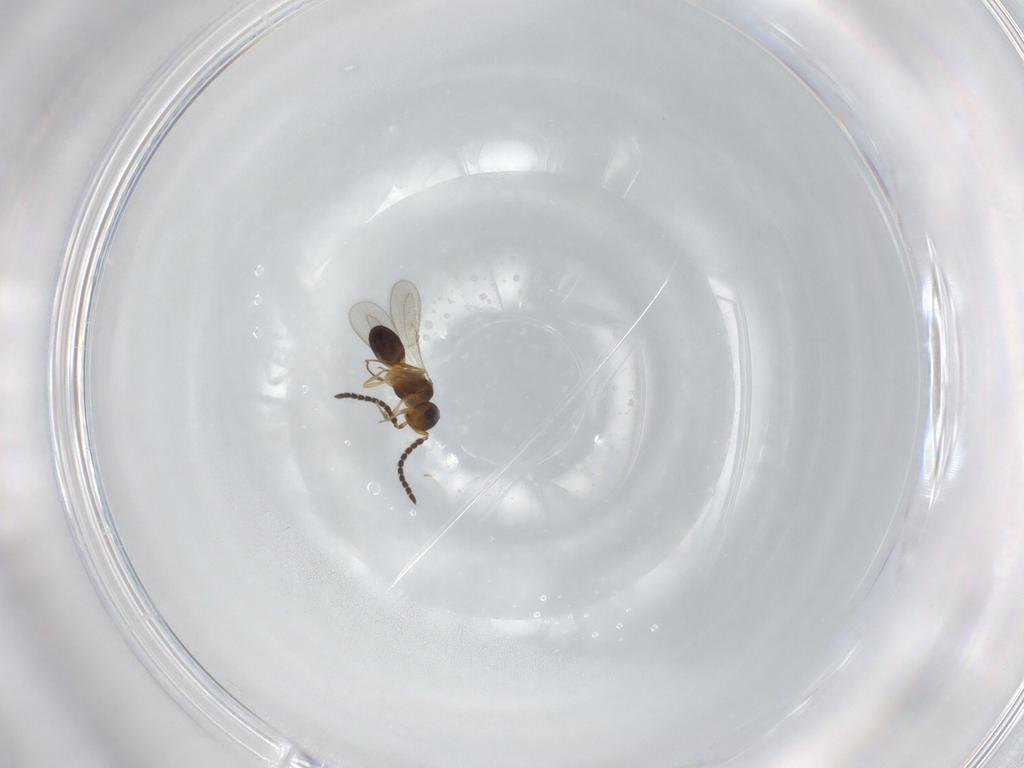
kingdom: Animalia
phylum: Arthropoda
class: Insecta
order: Hymenoptera
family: Scelionidae
